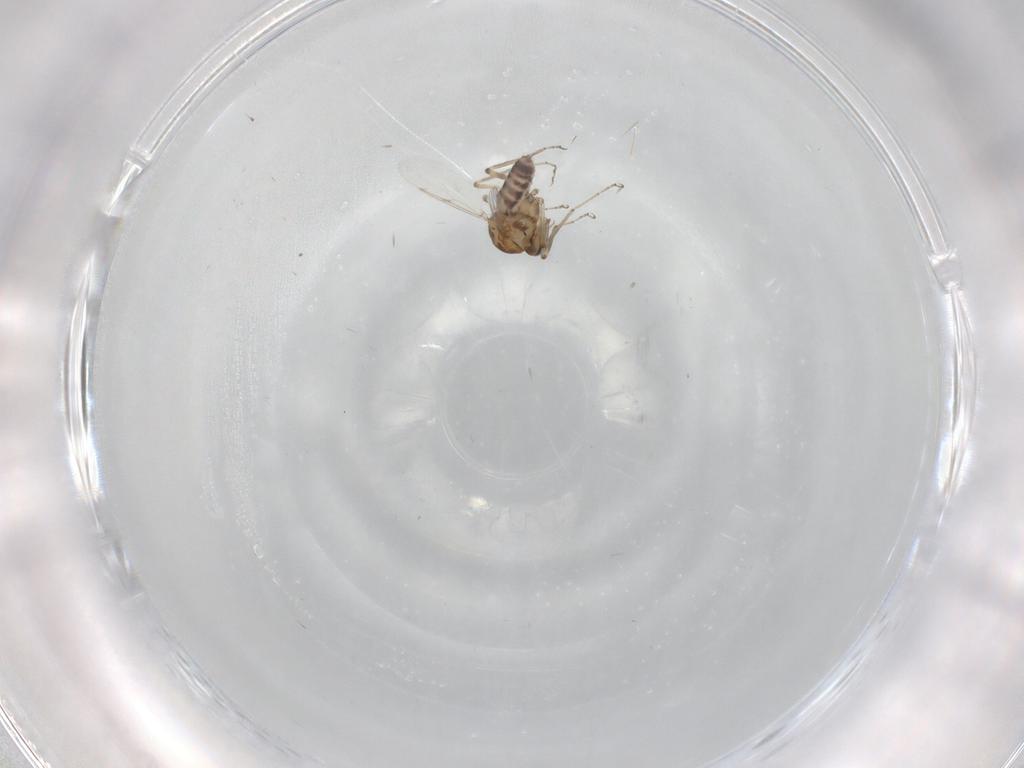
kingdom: Animalia
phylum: Arthropoda
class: Insecta
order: Diptera
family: Ceratopogonidae
